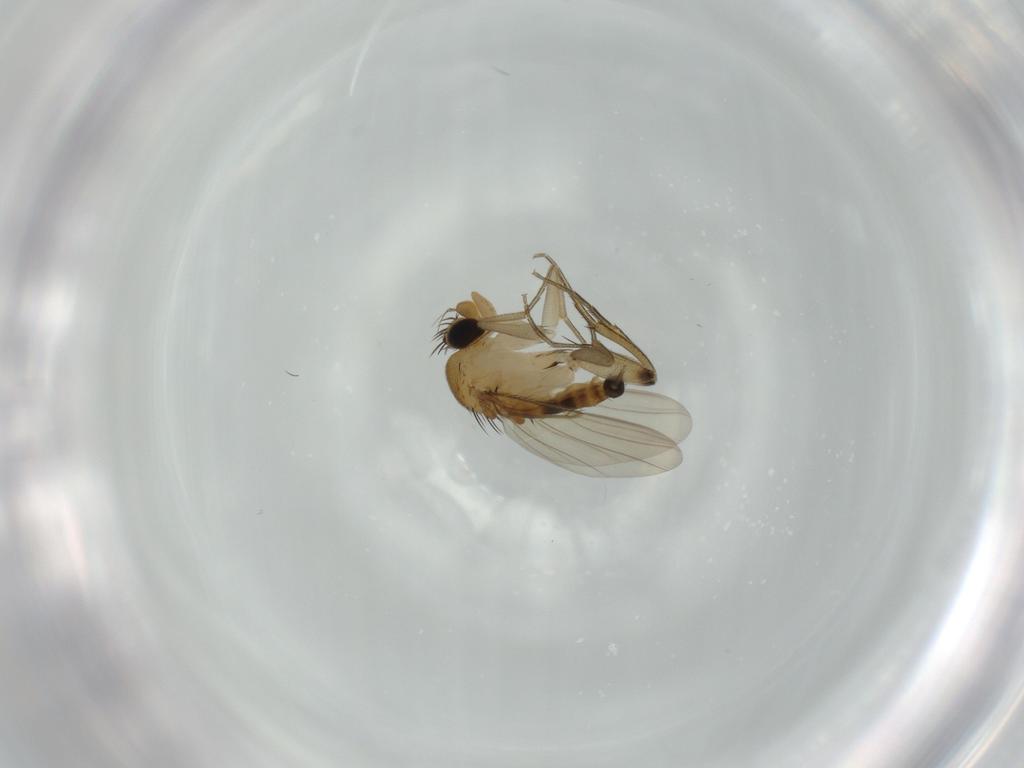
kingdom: Animalia
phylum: Arthropoda
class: Insecta
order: Diptera
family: Phoridae
